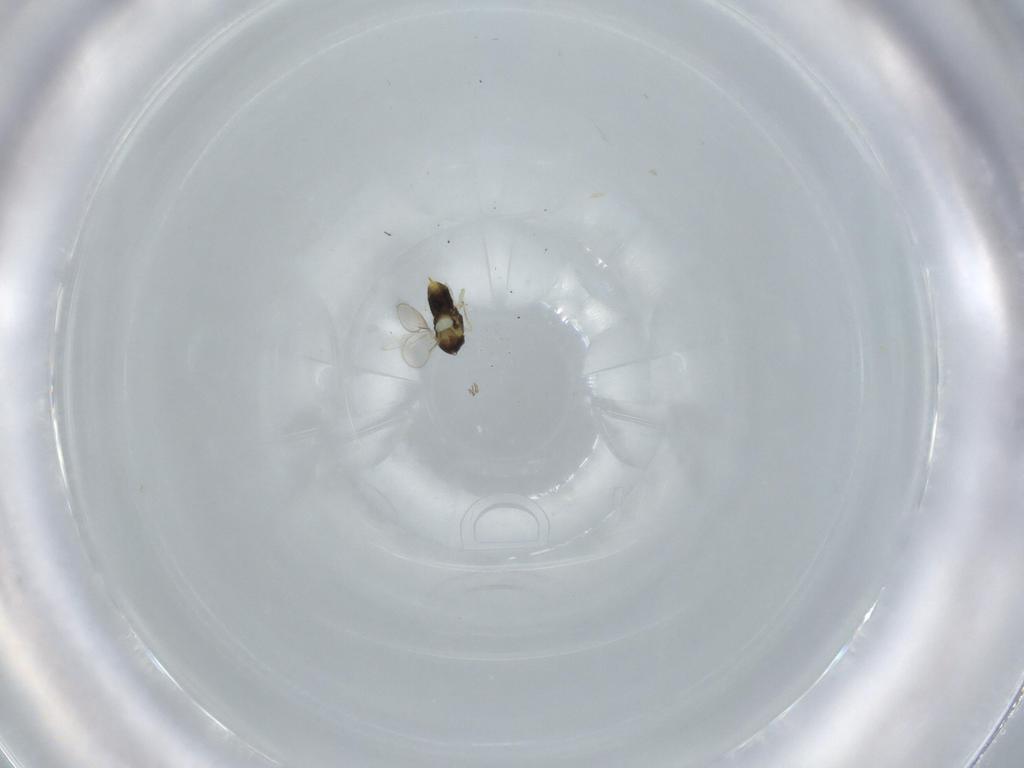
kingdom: Animalia
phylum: Arthropoda
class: Insecta
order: Hymenoptera
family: Aphelinidae
